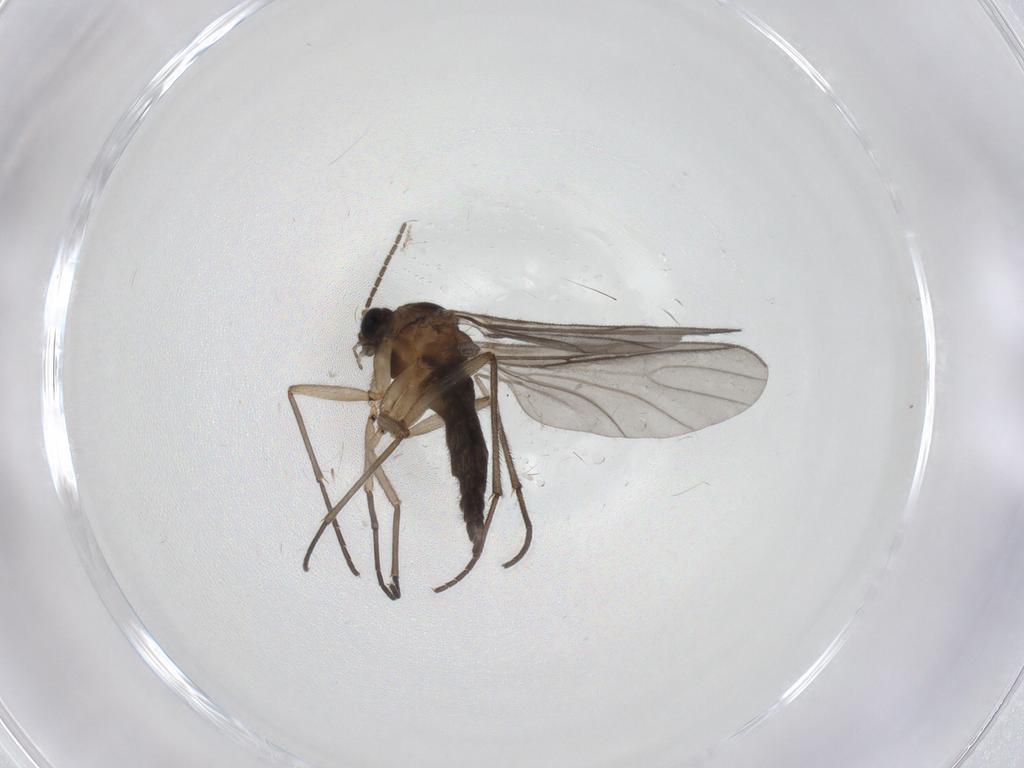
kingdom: Animalia
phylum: Arthropoda
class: Insecta
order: Diptera
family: Chironomidae
